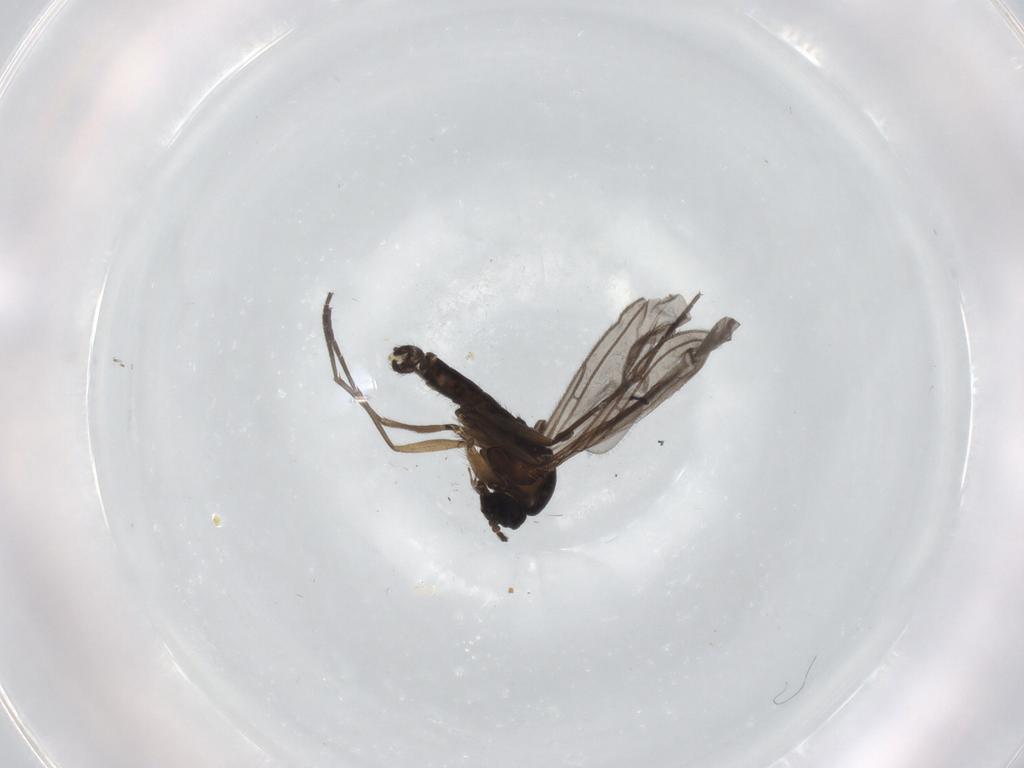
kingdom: Animalia
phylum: Arthropoda
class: Insecta
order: Diptera
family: Sciaridae
